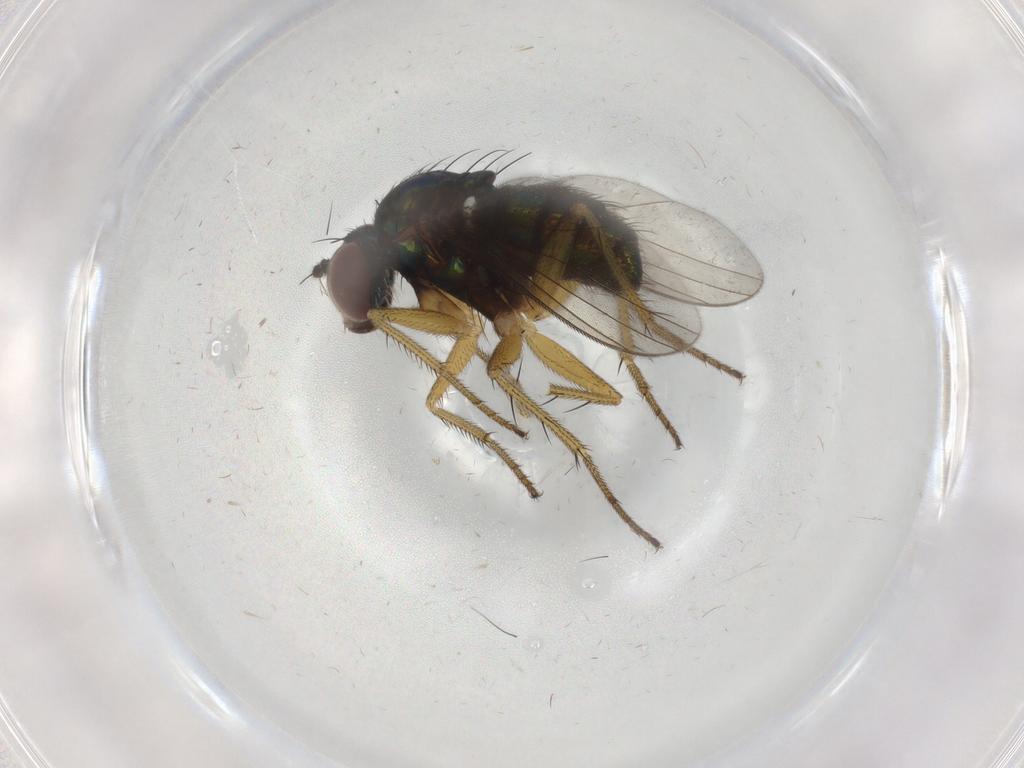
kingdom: Animalia
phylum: Arthropoda
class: Insecta
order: Diptera
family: Dolichopodidae
